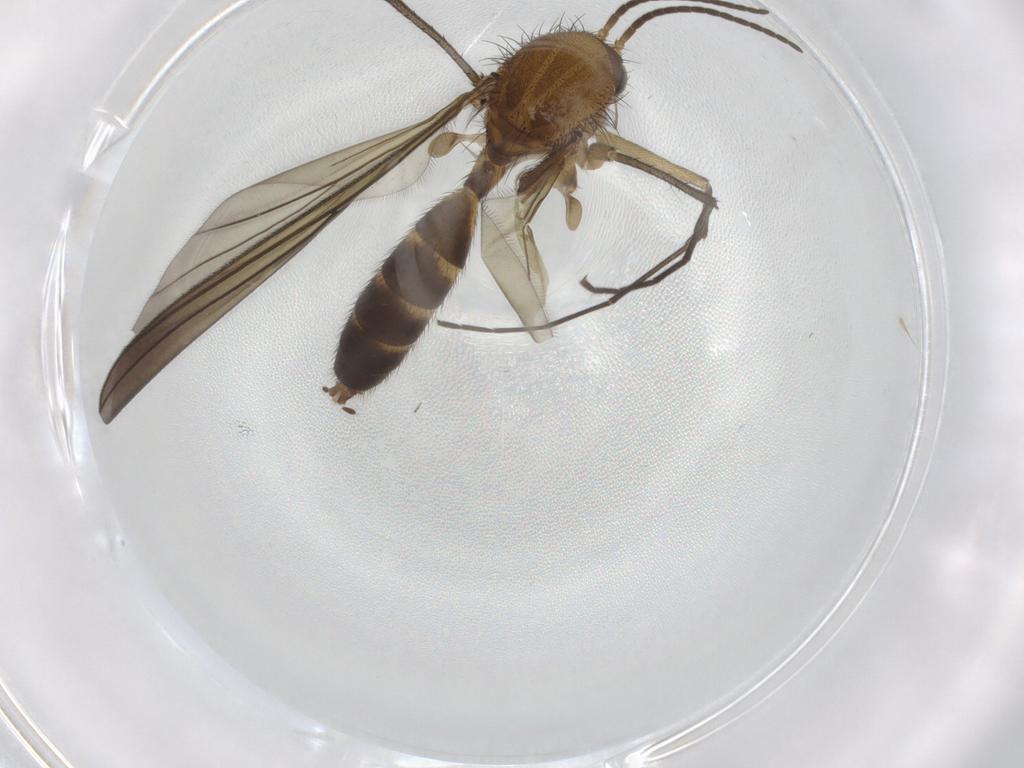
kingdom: Animalia
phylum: Arthropoda
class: Insecta
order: Diptera
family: Mycetophilidae
